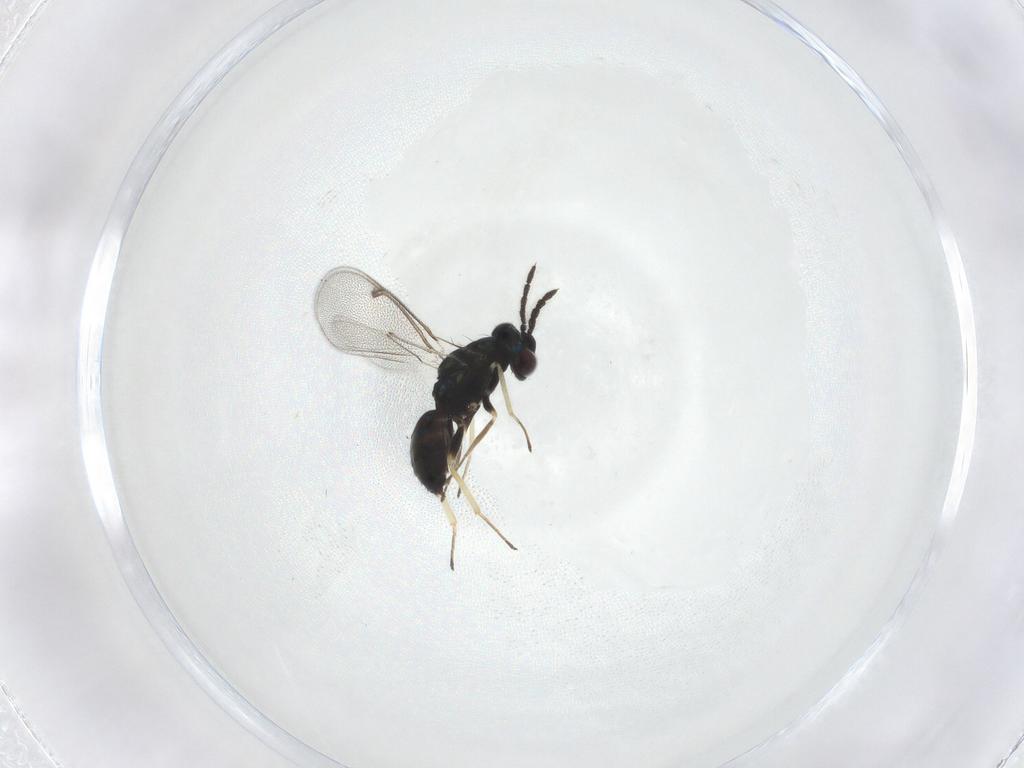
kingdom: Animalia
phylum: Arthropoda
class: Insecta
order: Hymenoptera
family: Eulophidae
